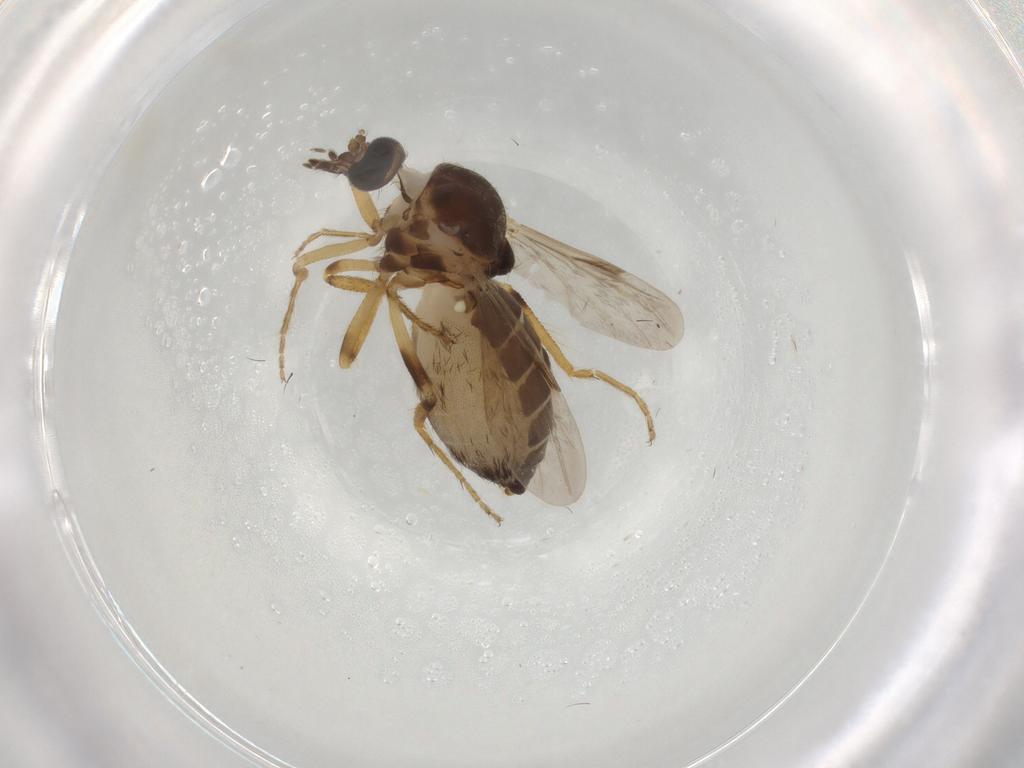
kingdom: Animalia
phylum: Arthropoda
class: Insecta
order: Diptera
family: Ceratopogonidae
